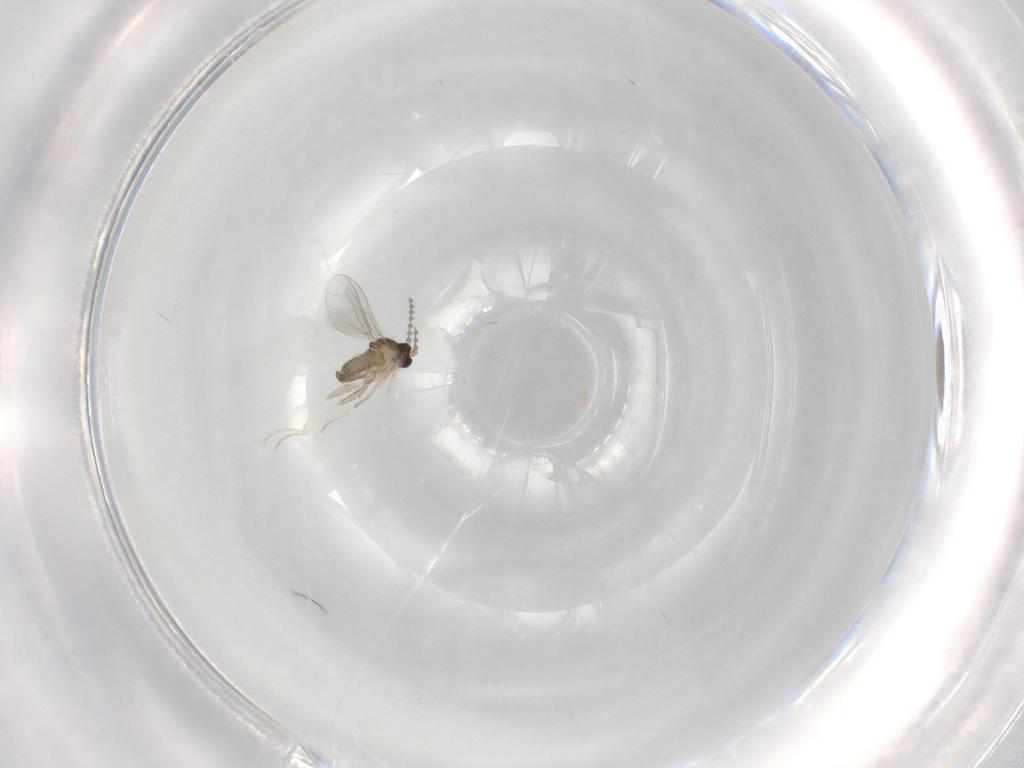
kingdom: Animalia
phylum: Arthropoda
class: Insecta
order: Diptera
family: Cecidomyiidae
